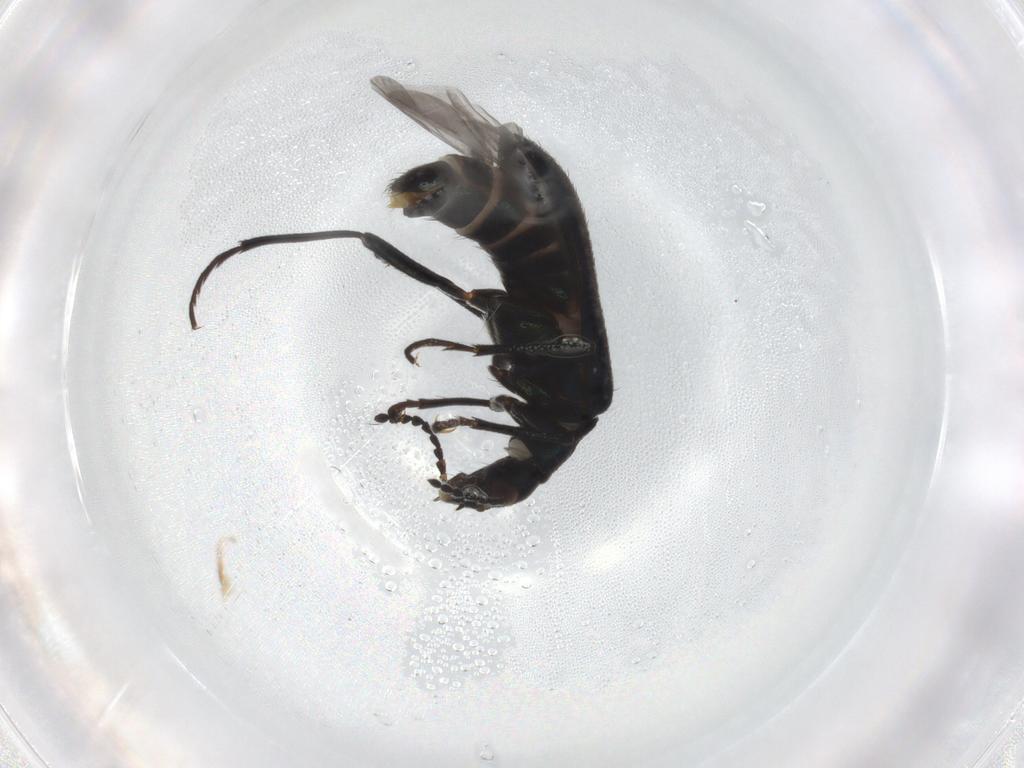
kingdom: Animalia
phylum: Arthropoda
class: Insecta
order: Coleoptera
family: Melyridae
